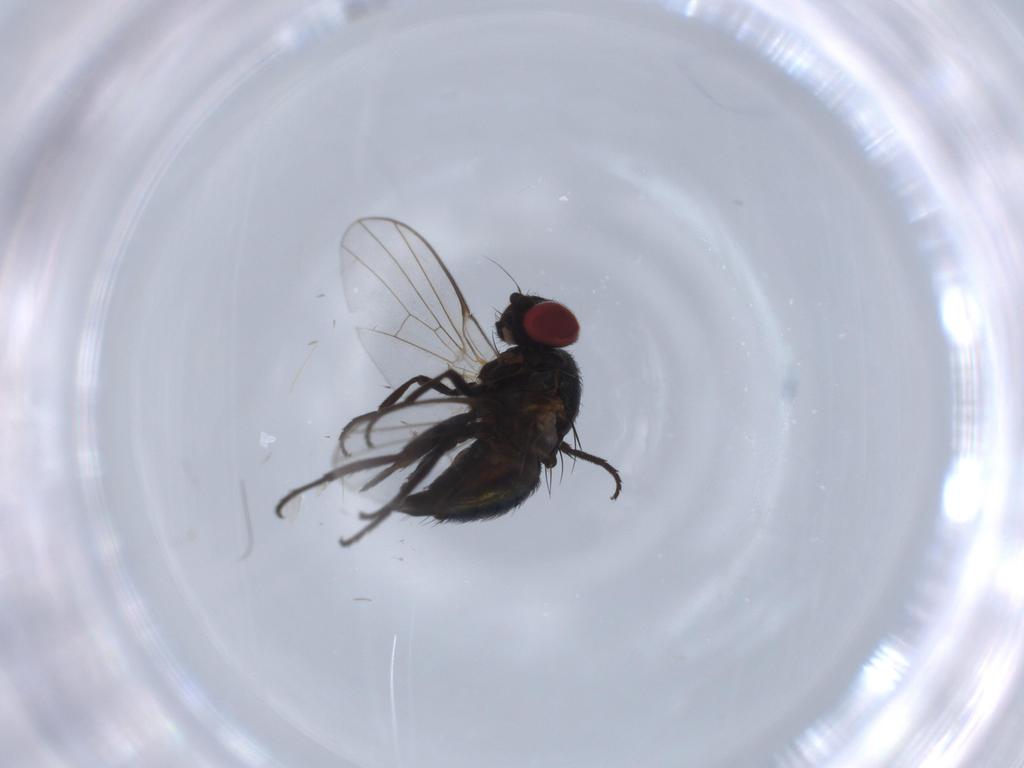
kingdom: Animalia
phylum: Arthropoda
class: Insecta
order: Diptera
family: Agromyzidae
